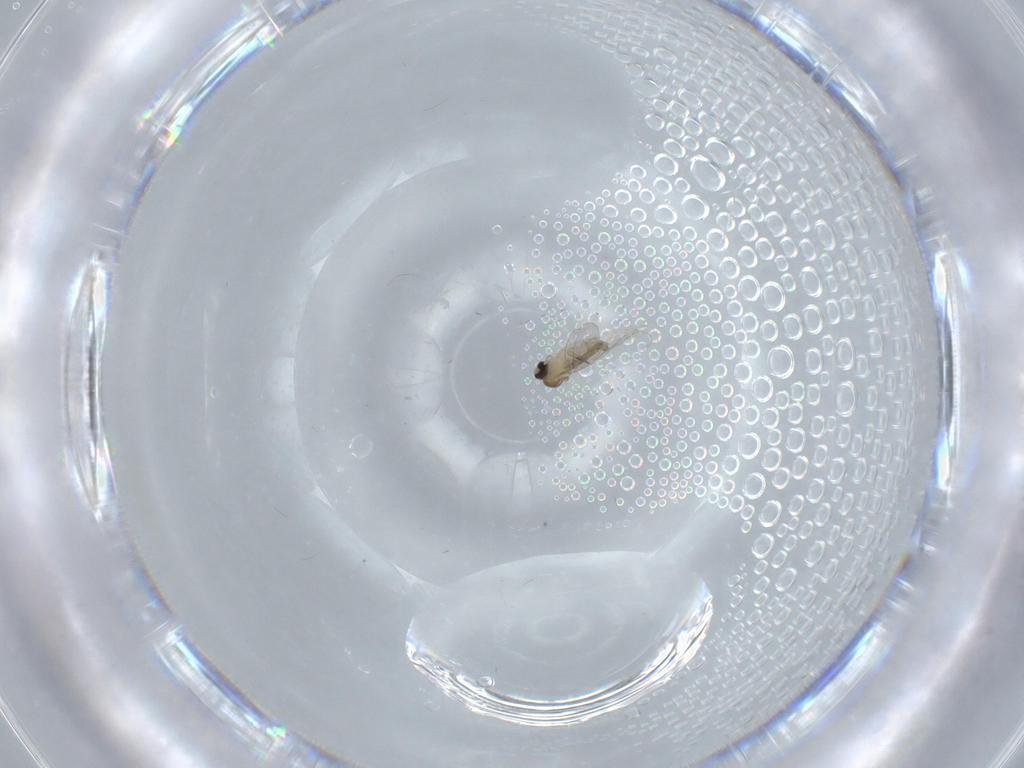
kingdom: Animalia
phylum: Arthropoda
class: Insecta
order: Diptera
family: Cecidomyiidae
